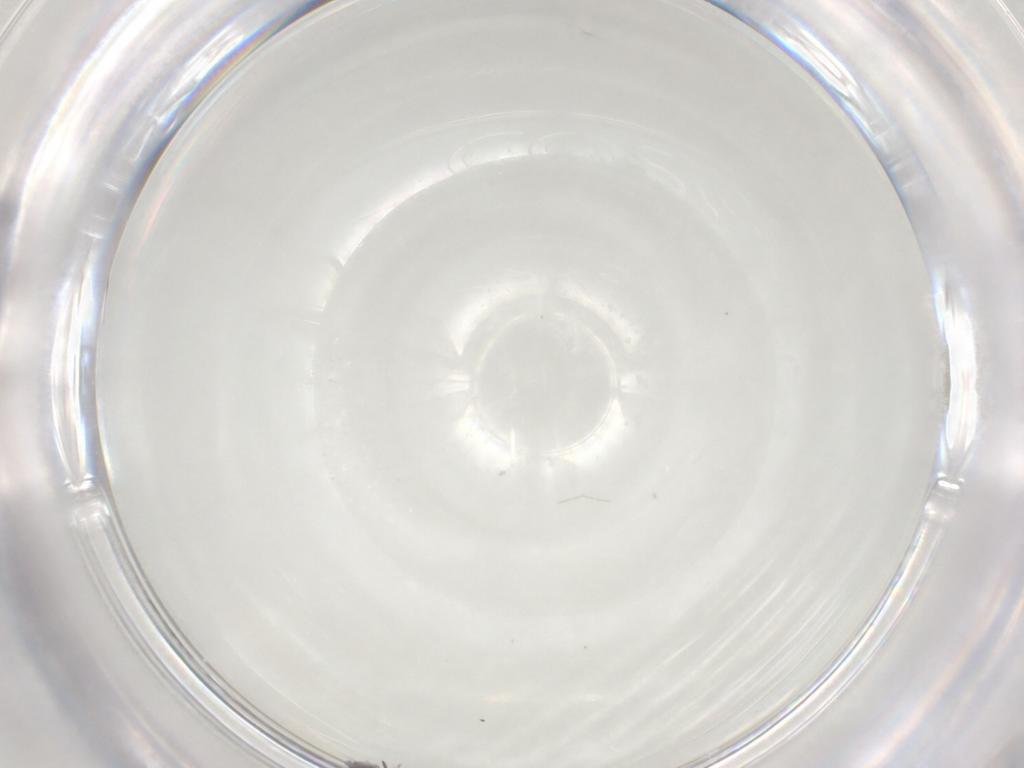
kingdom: Animalia
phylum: Arthropoda
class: Collembola
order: Symphypleona
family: Katiannidae
